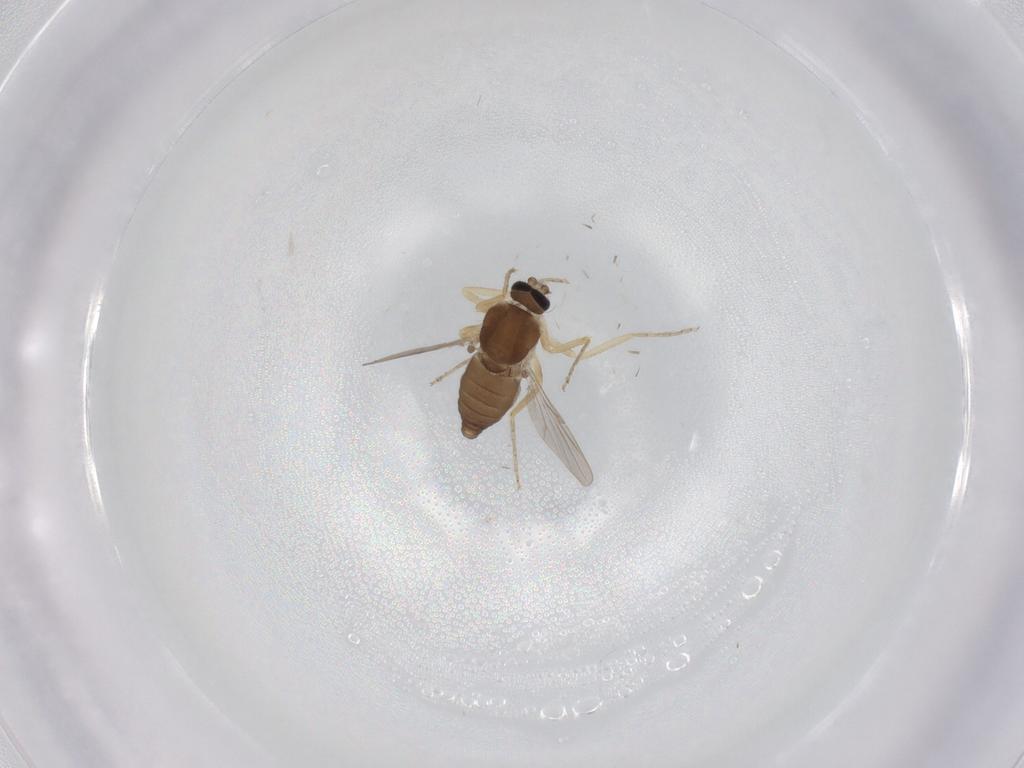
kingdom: Animalia
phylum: Arthropoda
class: Insecta
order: Diptera
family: Ceratopogonidae
